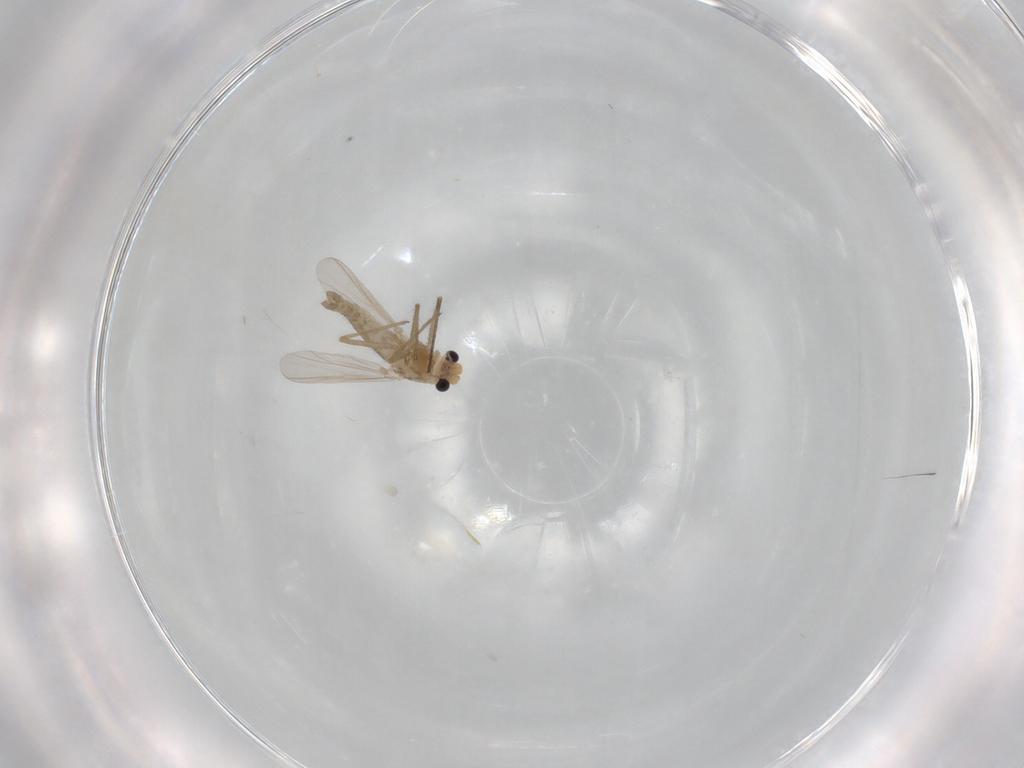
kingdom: Animalia
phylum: Arthropoda
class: Insecta
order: Diptera
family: Chironomidae
